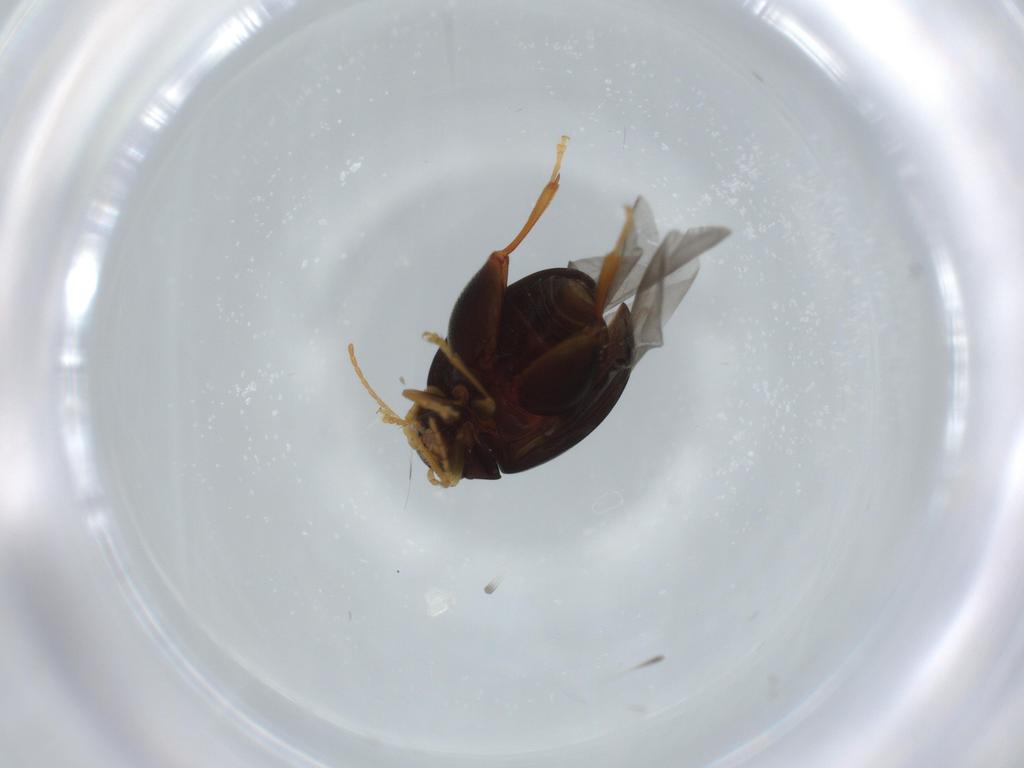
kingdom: Animalia
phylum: Arthropoda
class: Insecta
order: Coleoptera
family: Chrysomelidae
